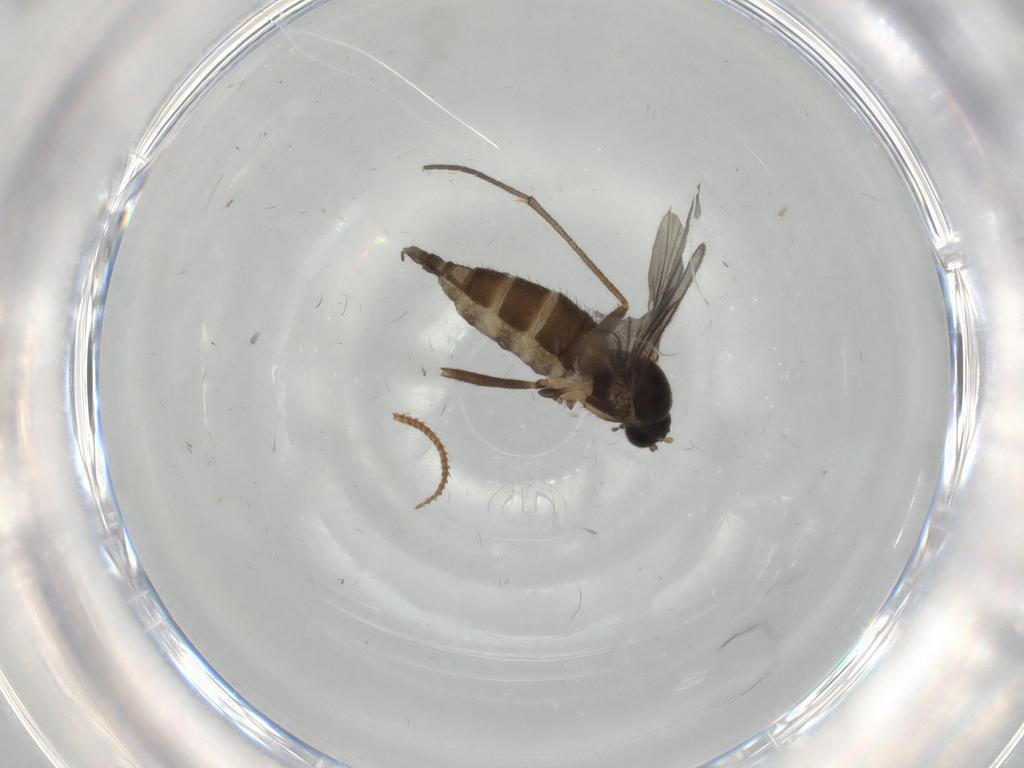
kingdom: Animalia
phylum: Arthropoda
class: Insecta
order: Diptera
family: Sciaridae
